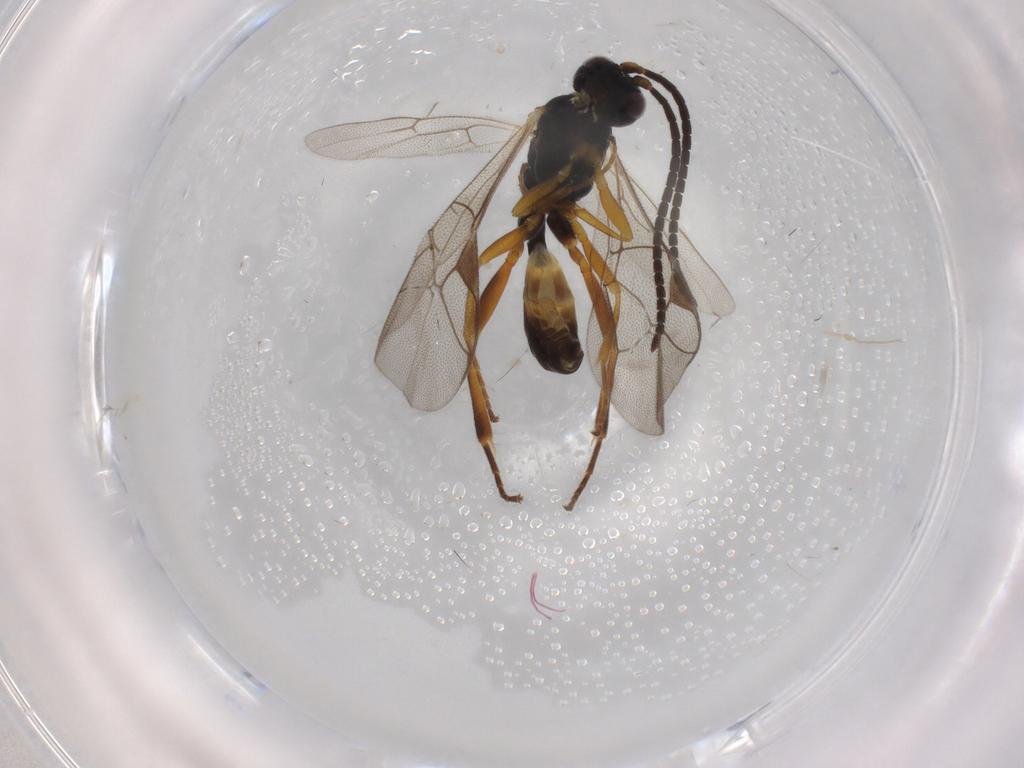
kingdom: Animalia
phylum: Arthropoda
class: Insecta
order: Hymenoptera
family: Ichneumonidae
